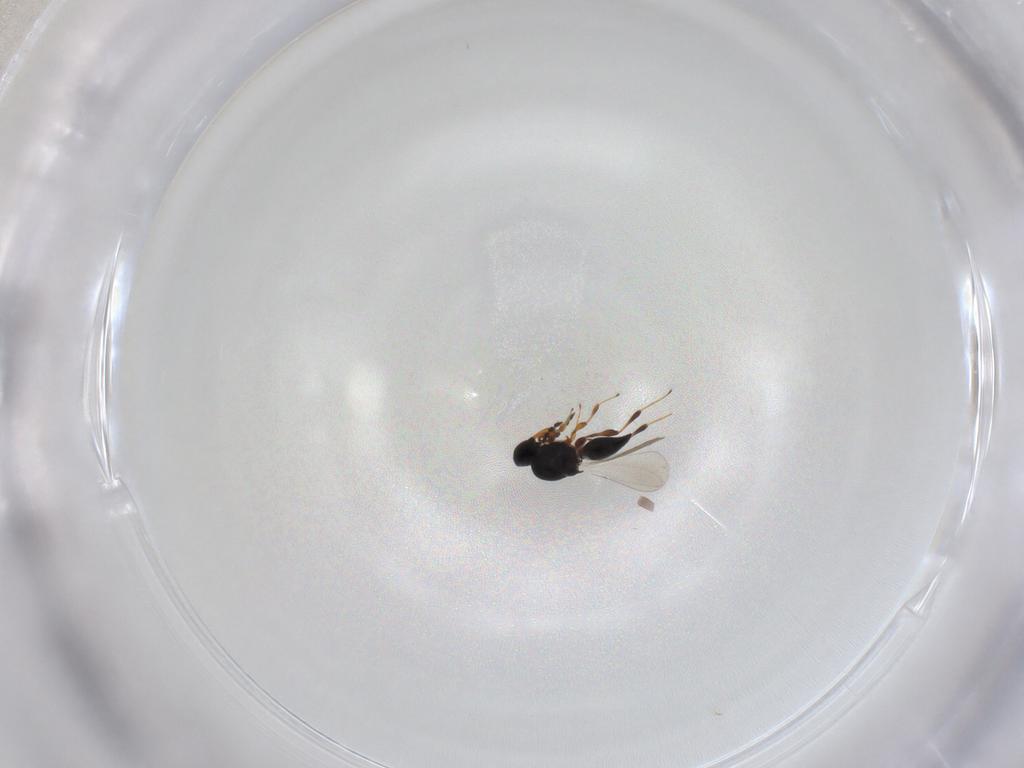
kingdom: Animalia
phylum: Arthropoda
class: Insecta
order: Hymenoptera
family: Platygastridae
